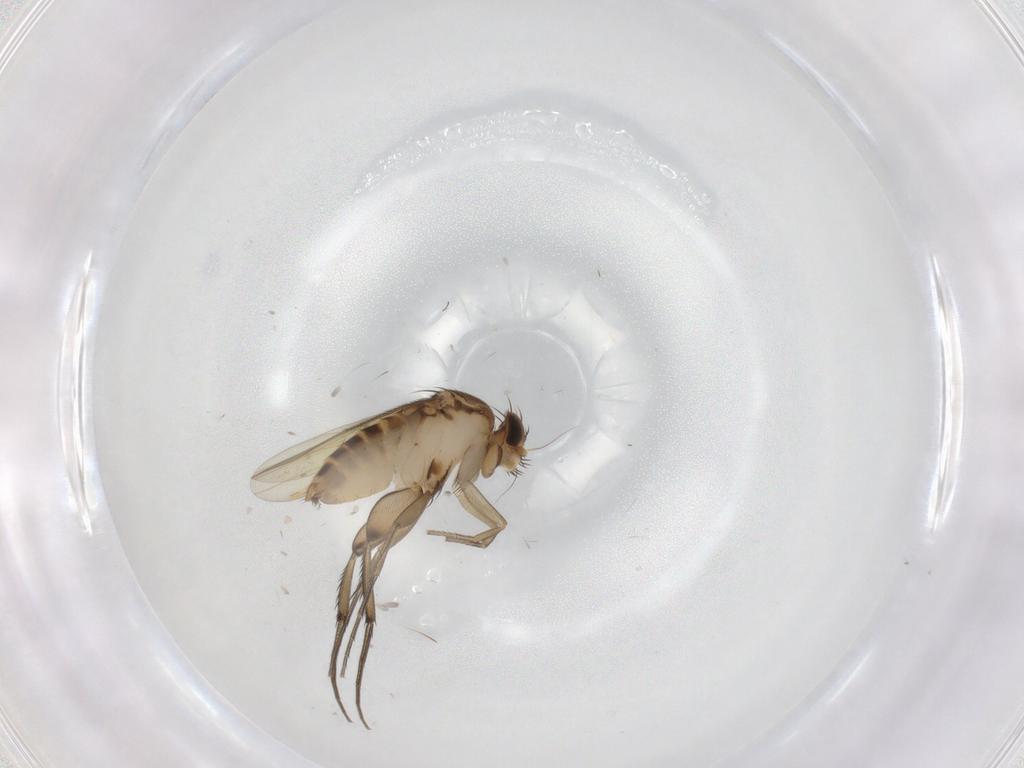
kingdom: Animalia
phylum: Arthropoda
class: Insecta
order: Diptera
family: Phoridae
